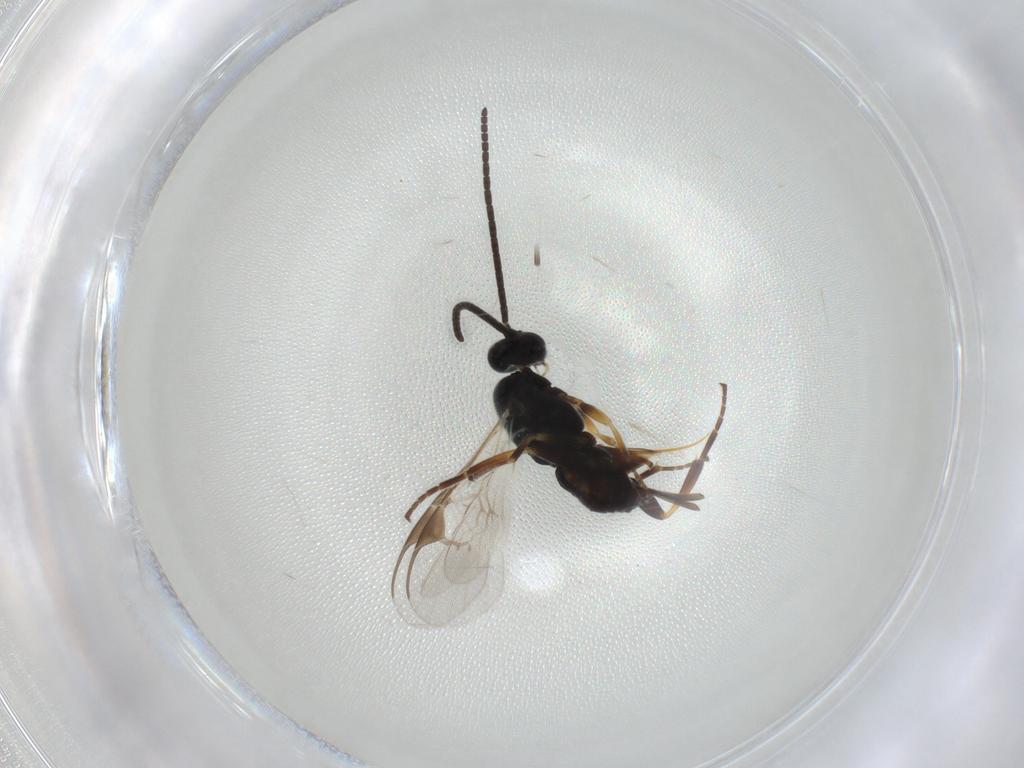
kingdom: Animalia
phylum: Arthropoda
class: Insecta
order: Hymenoptera
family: Braconidae
